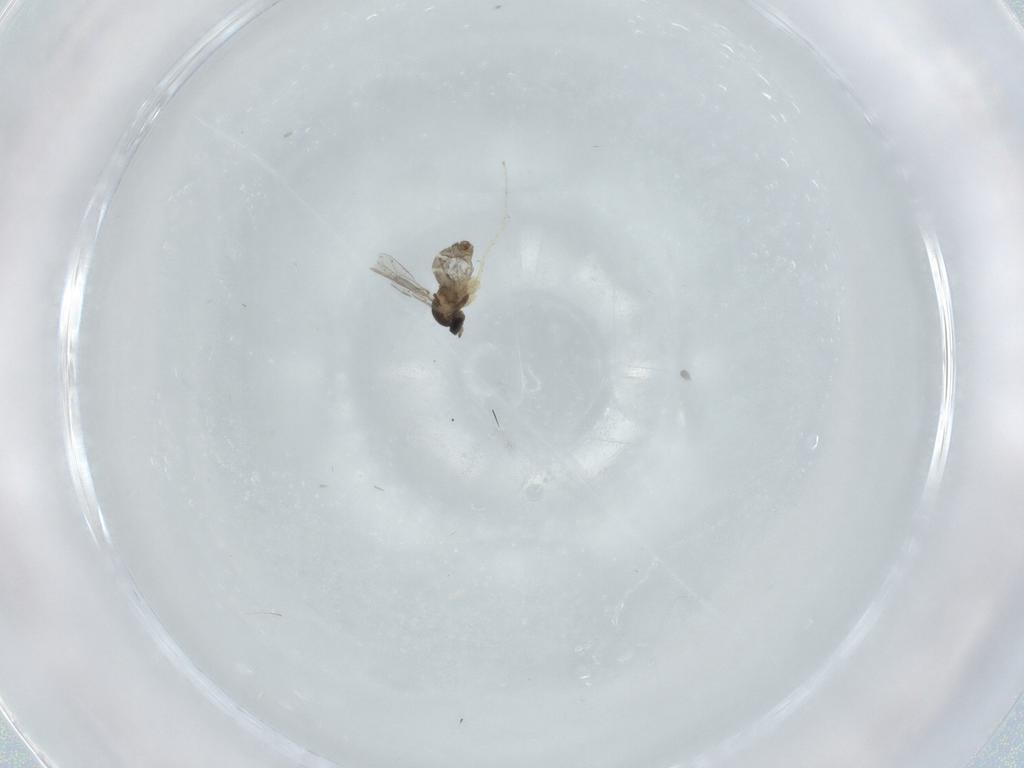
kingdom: Animalia
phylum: Arthropoda
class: Insecta
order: Diptera
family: Cecidomyiidae
